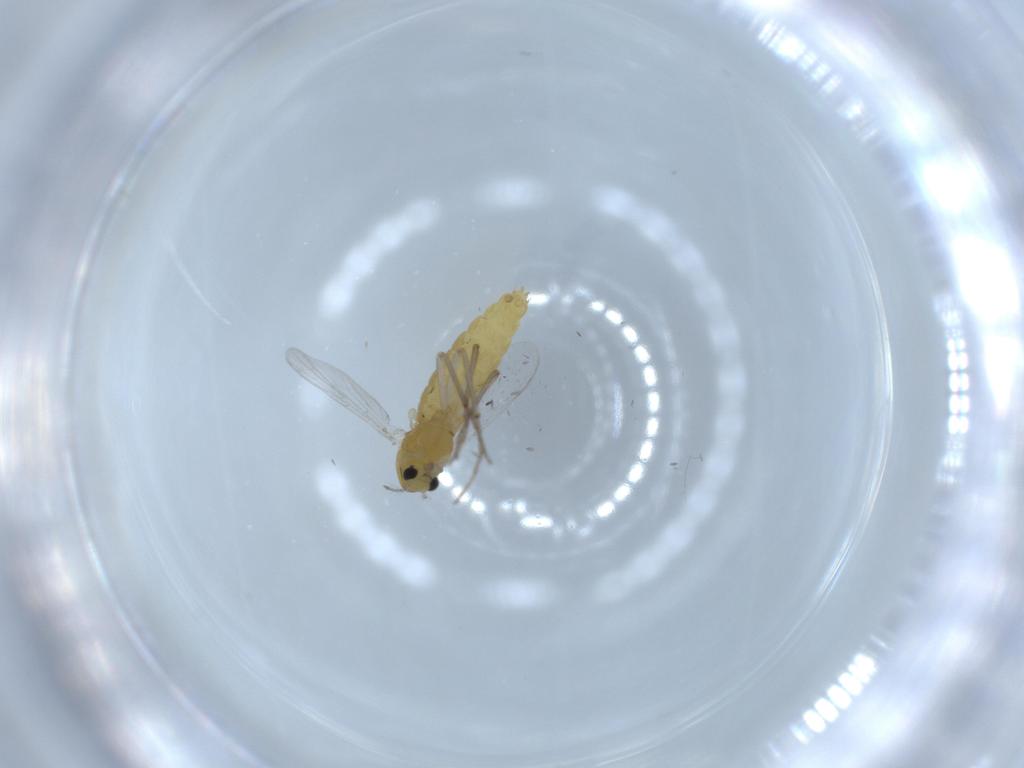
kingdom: Animalia
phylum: Arthropoda
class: Insecta
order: Diptera
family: Chironomidae
